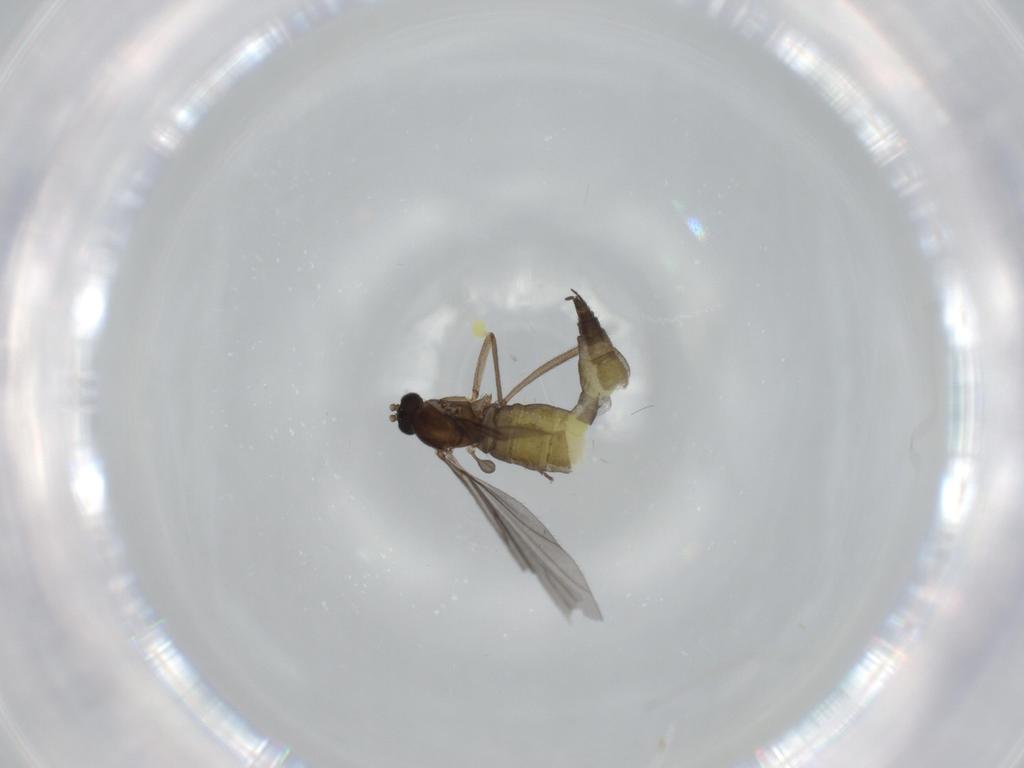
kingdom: Animalia
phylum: Arthropoda
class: Insecta
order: Diptera
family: Sciaridae
